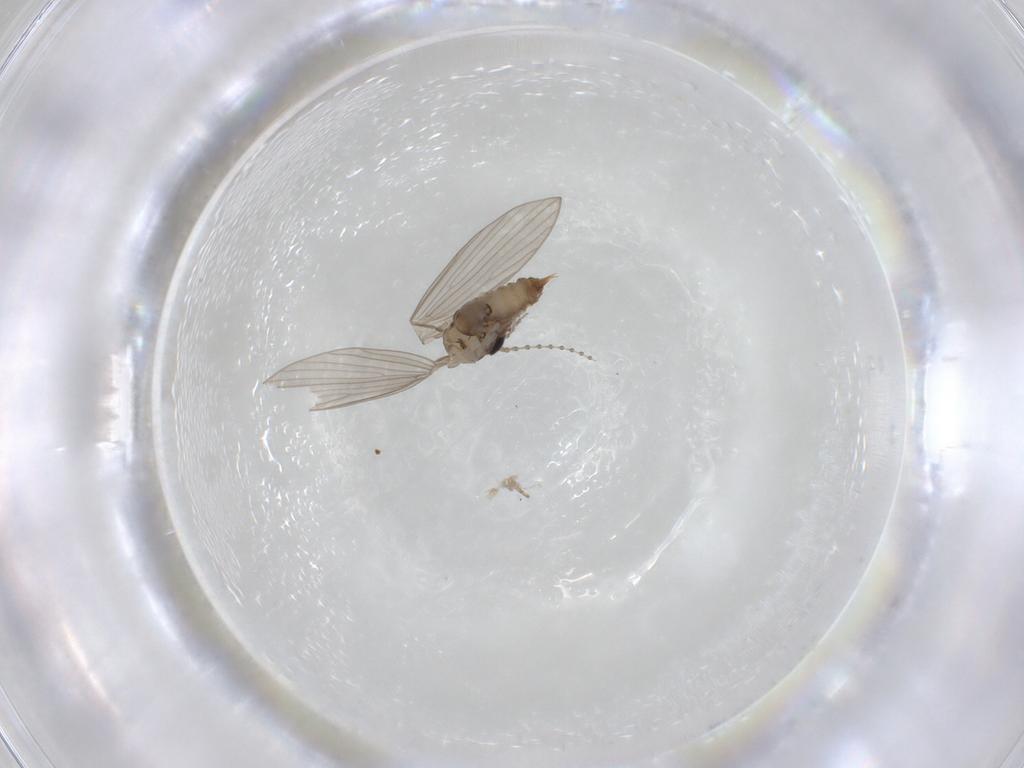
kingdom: Animalia
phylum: Arthropoda
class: Insecta
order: Diptera
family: Psychodidae
